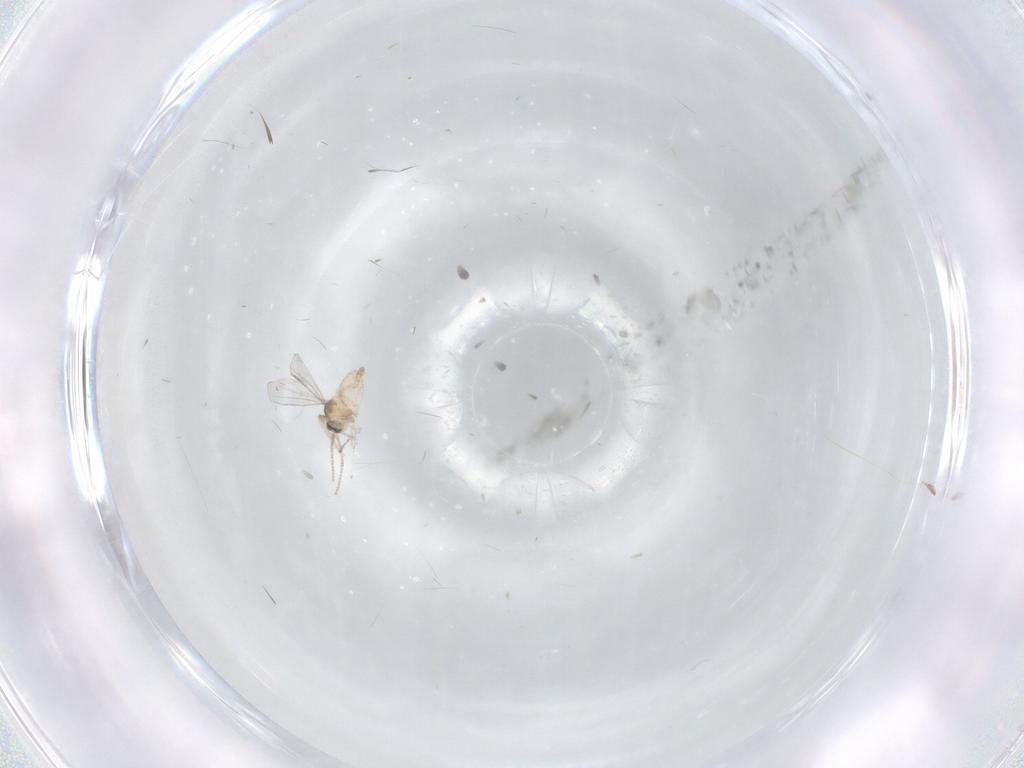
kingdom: Animalia
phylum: Arthropoda
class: Insecta
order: Diptera
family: Cecidomyiidae
